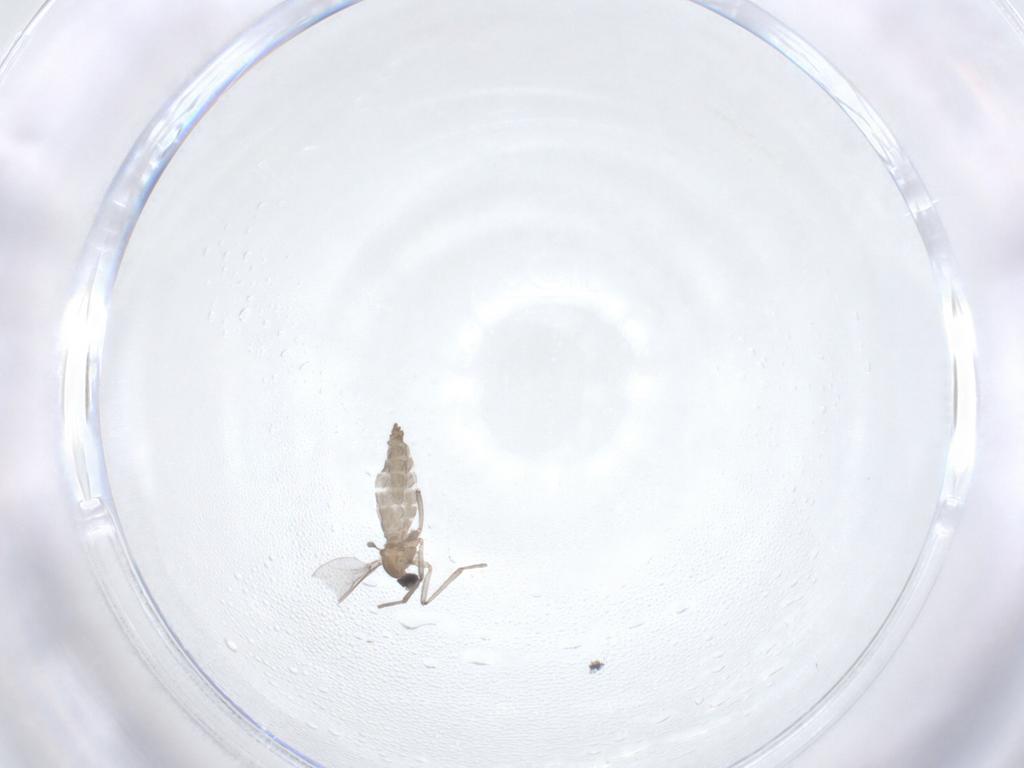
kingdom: Animalia
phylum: Arthropoda
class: Insecta
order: Diptera
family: Cecidomyiidae
